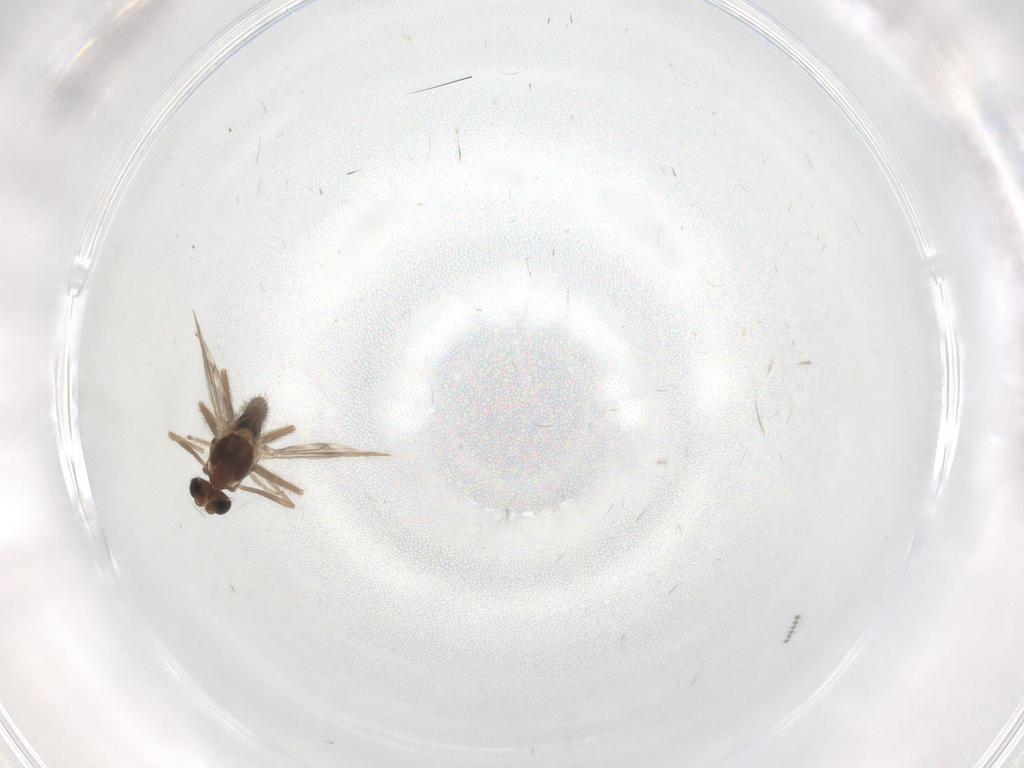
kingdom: Animalia
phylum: Arthropoda
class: Insecta
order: Diptera
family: Chironomidae
